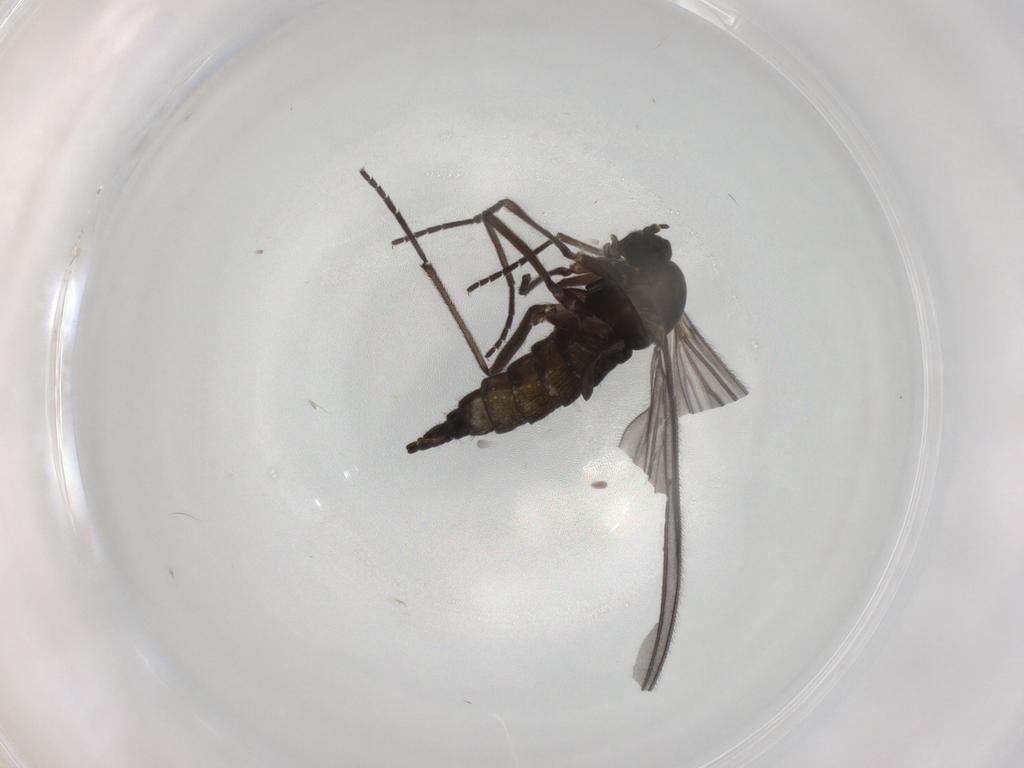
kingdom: Animalia
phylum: Arthropoda
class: Insecta
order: Diptera
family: Sciaridae
